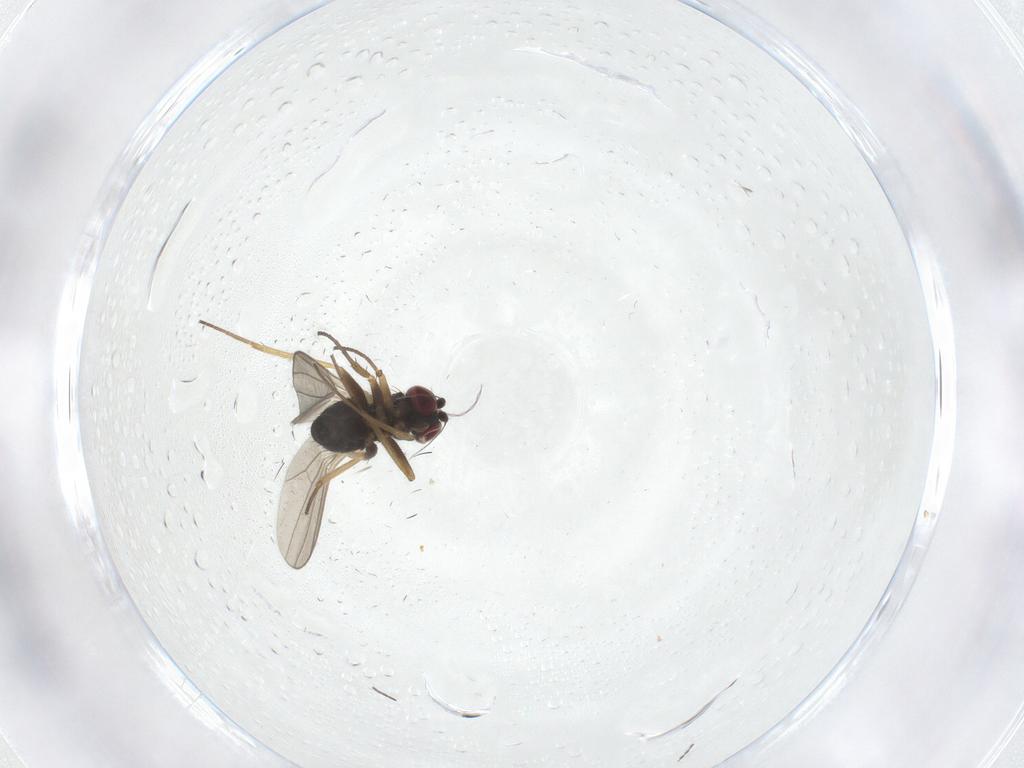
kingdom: Animalia
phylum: Arthropoda
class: Insecta
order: Diptera
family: Dolichopodidae
